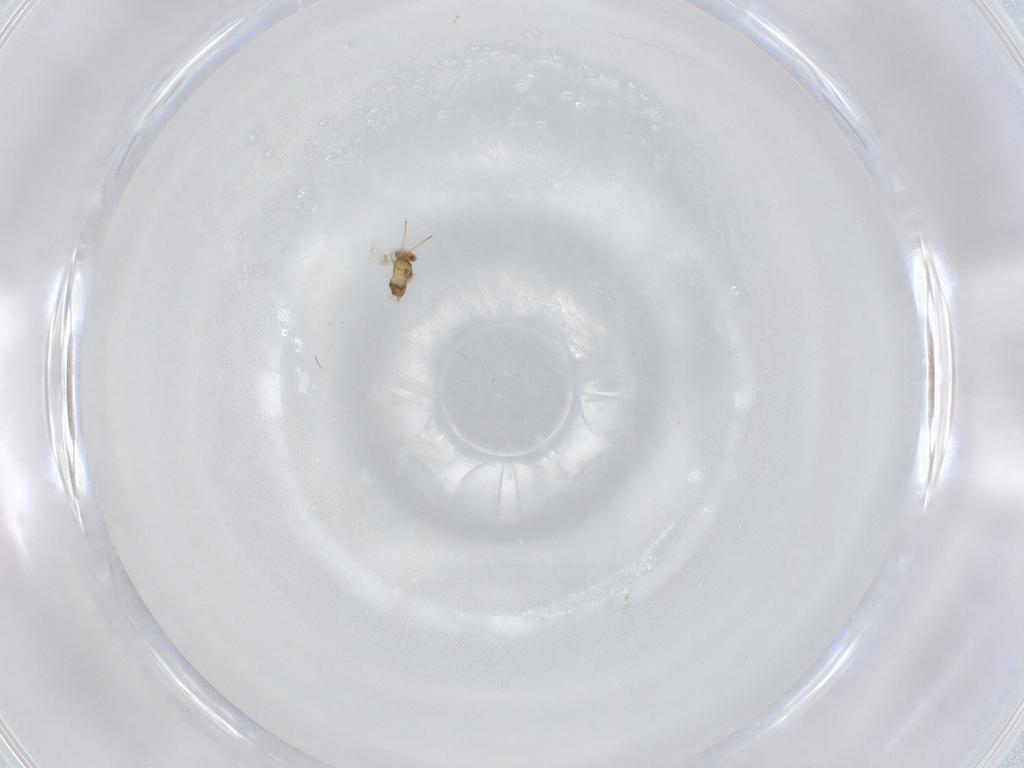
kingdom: Animalia
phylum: Arthropoda
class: Insecta
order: Hymenoptera
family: Aphelinidae
